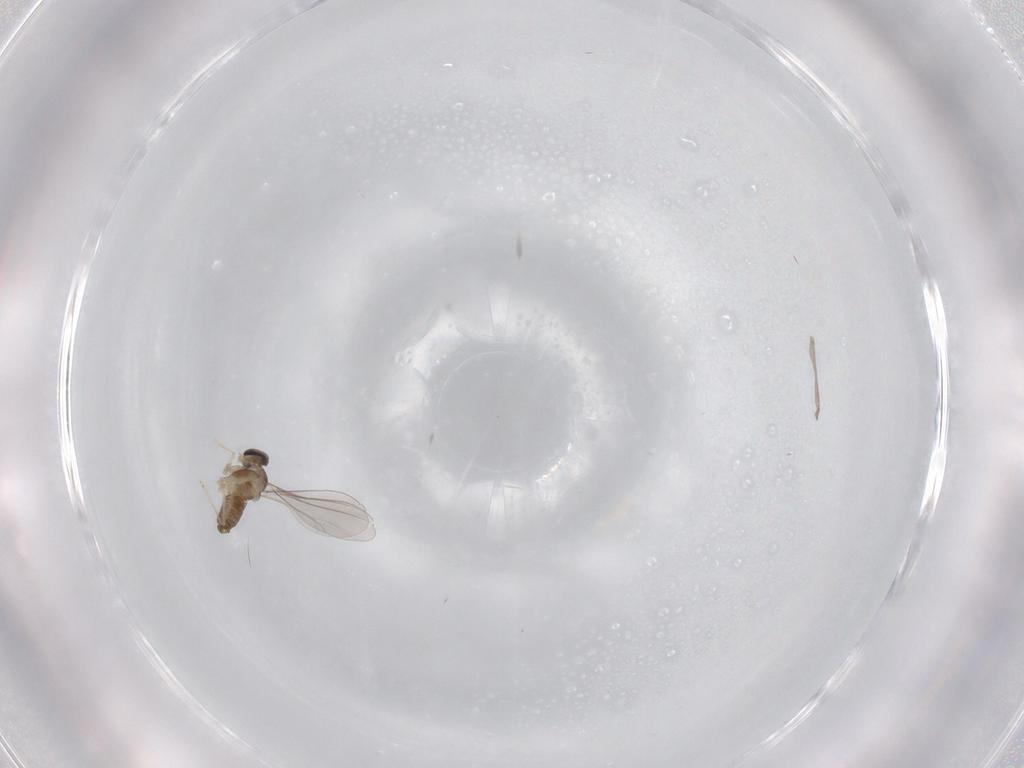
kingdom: Animalia
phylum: Arthropoda
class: Insecta
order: Diptera
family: Cecidomyiidae
